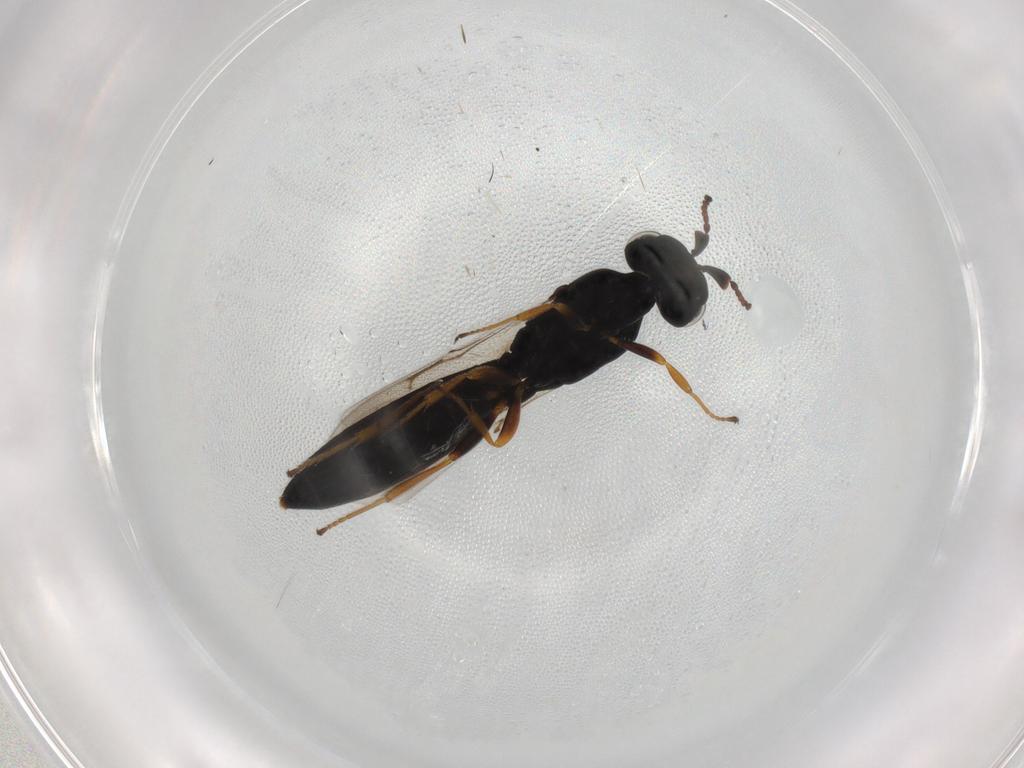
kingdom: Animalia
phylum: Arthropoda
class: Insecta
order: Hymenoptera
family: Scelionidae
